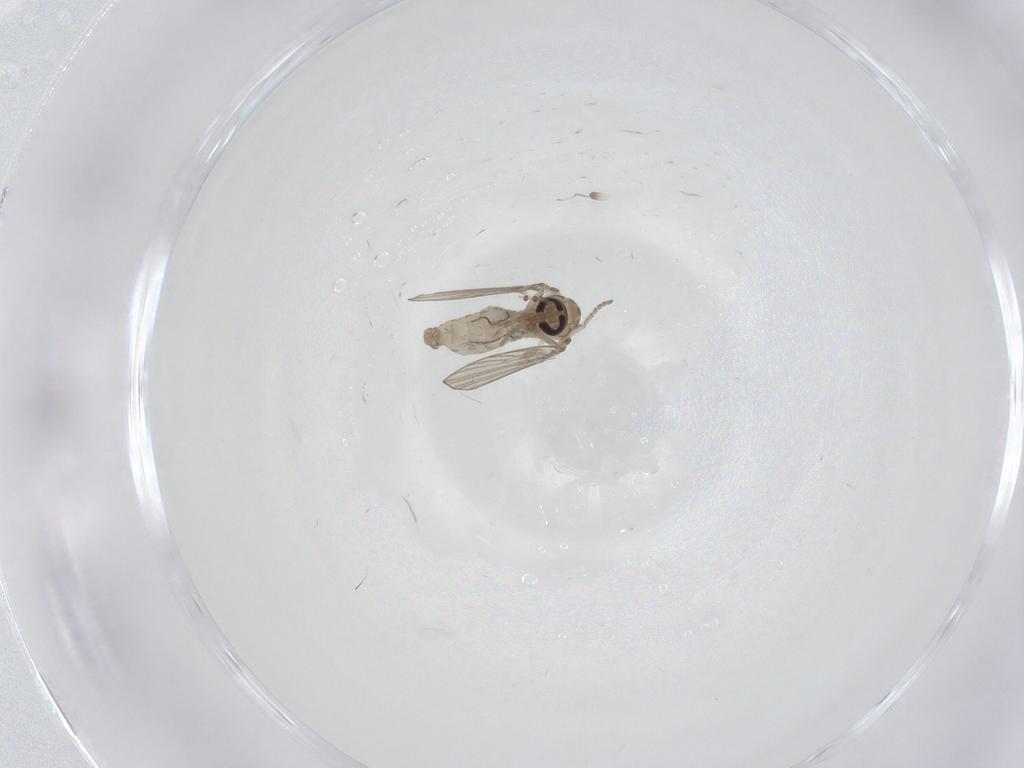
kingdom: Animalia
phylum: Arthropoda
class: Insecta
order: Diptera
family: Psychodidae
